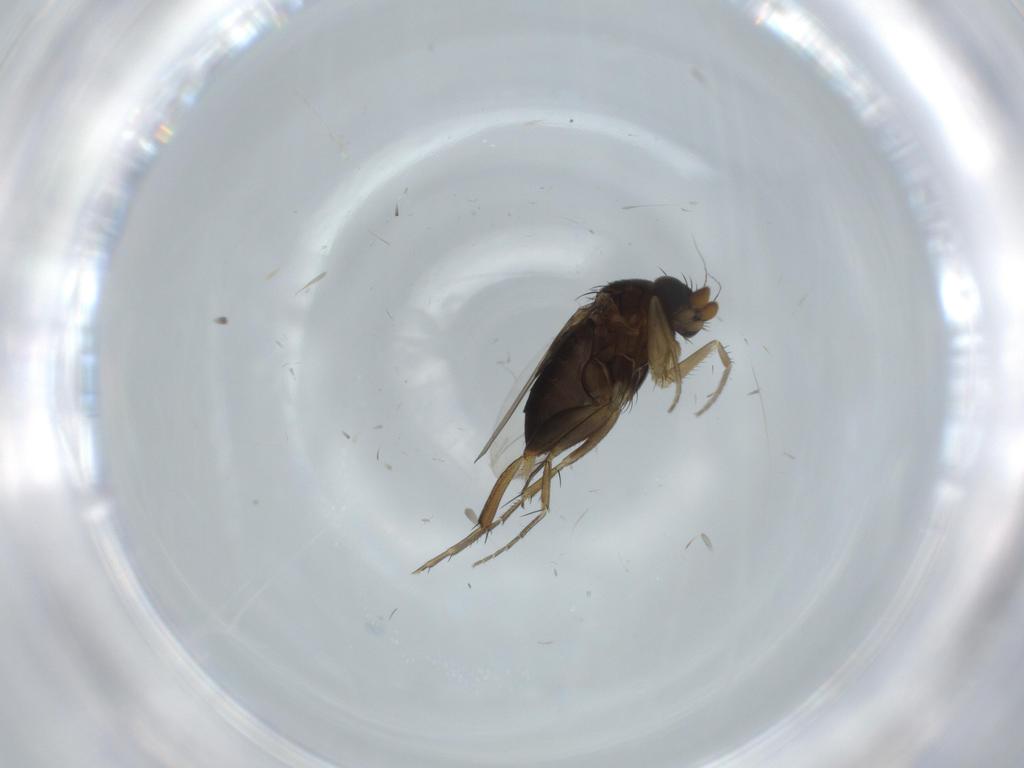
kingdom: Animalia
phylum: Arthropoda
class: Insecta
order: Diptera
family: Phoridae
